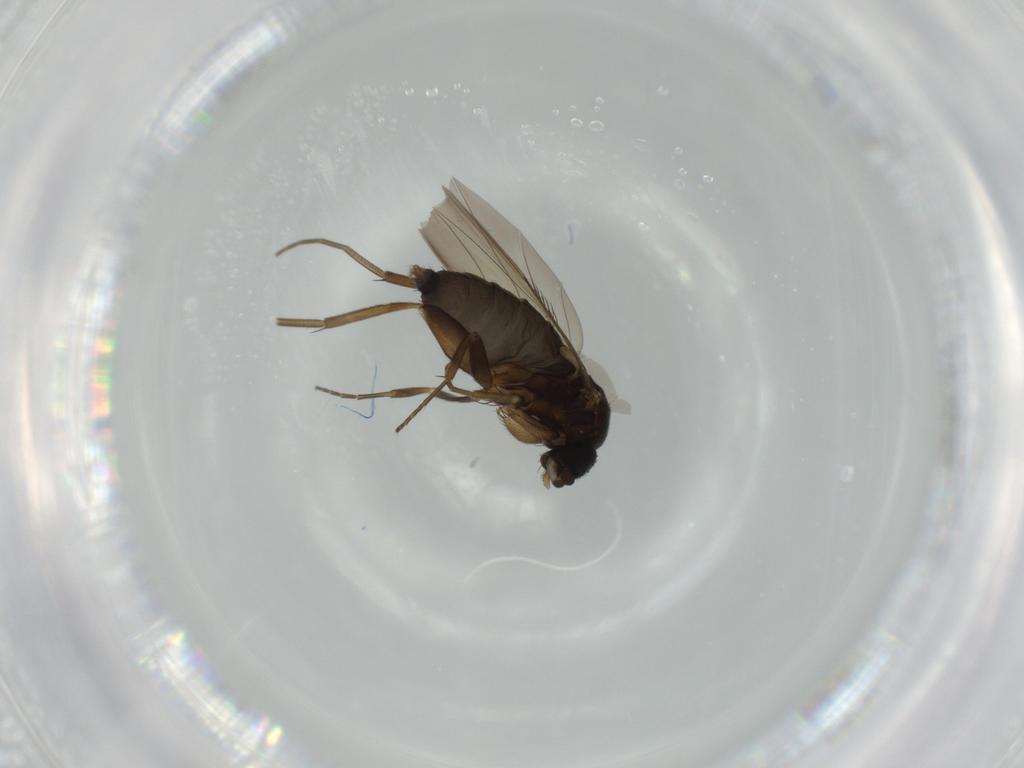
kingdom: Animalia
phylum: Arthropoda
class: Insecta
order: Diptera
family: Phoridae
